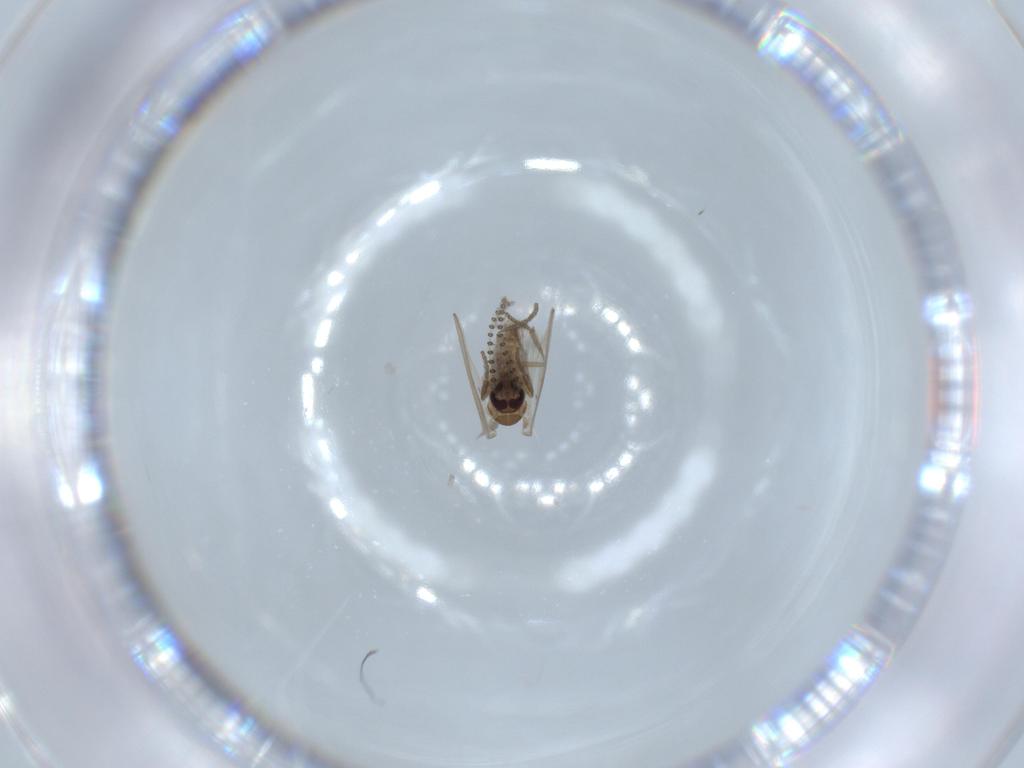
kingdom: Animalia
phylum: Arthropoda
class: Insecta
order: Diptera
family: Psychodidae
